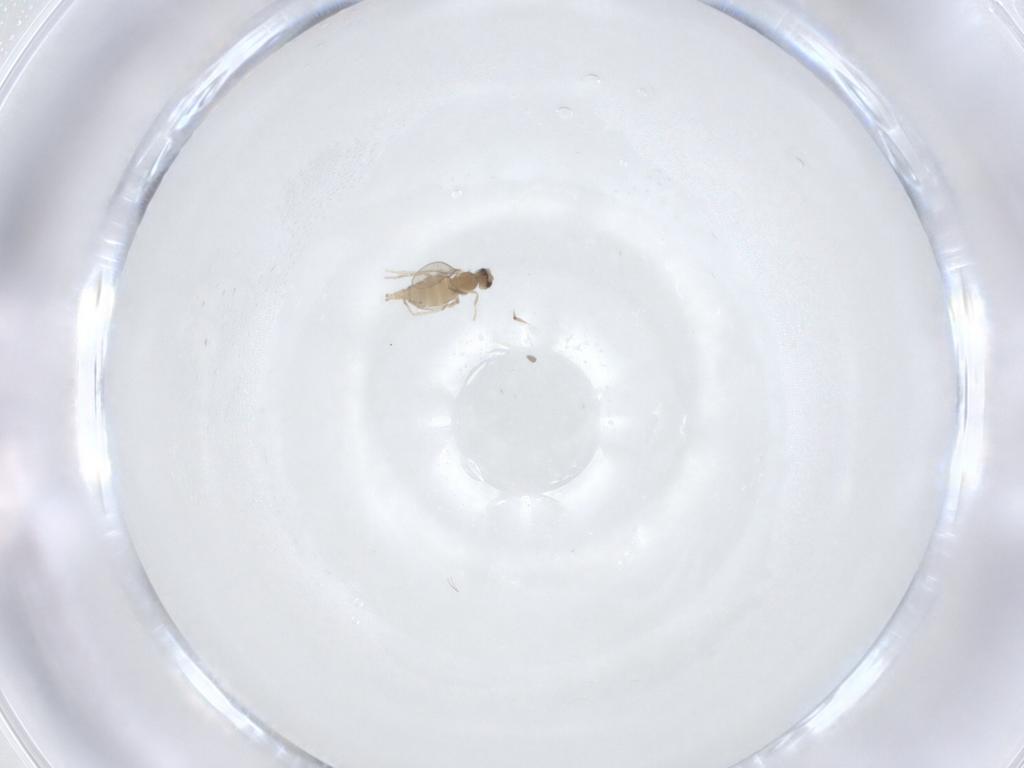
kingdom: Animalia
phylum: Arthropoda
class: Insecta
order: Diptera
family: Cecidomyiidae
